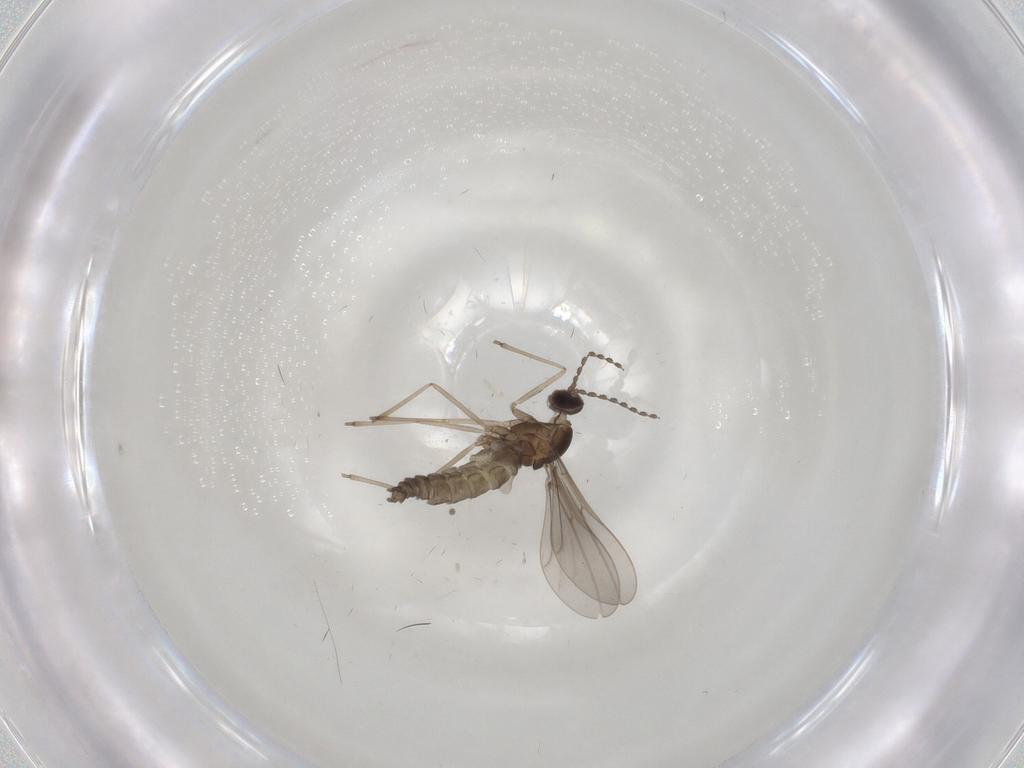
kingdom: Animalia
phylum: Arthropoda
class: Insecta
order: Diptera
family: Cecidomyiidae
